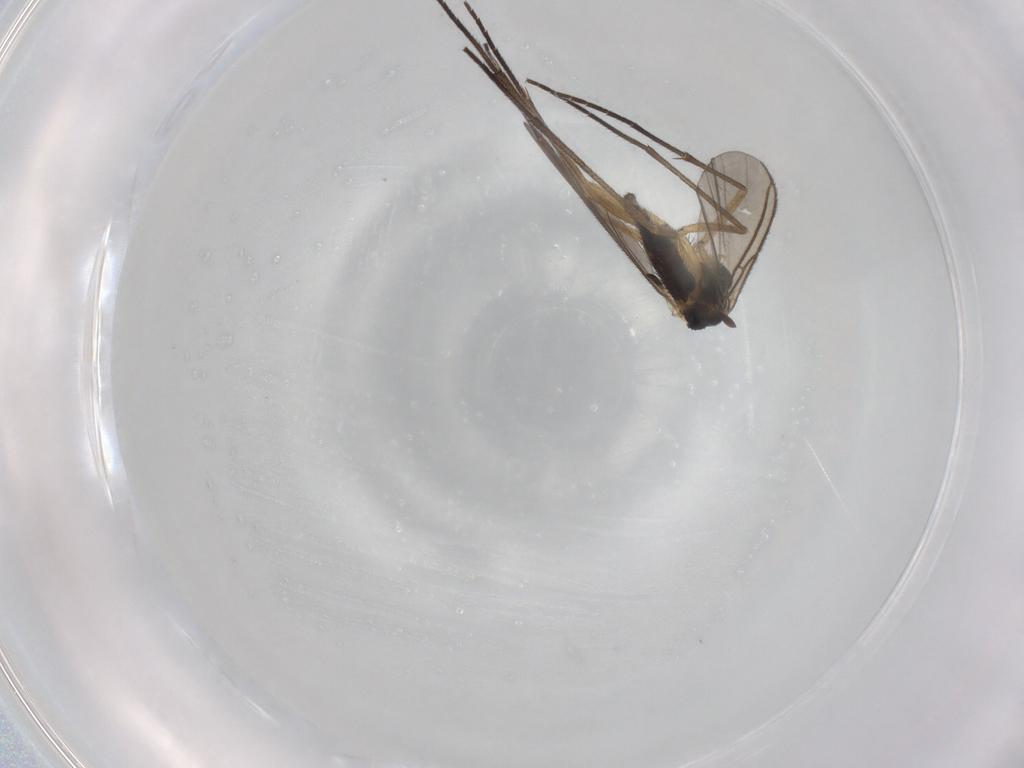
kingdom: Animalia
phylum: Arthropoda
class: Insecta
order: Diptera
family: Sciaridae
